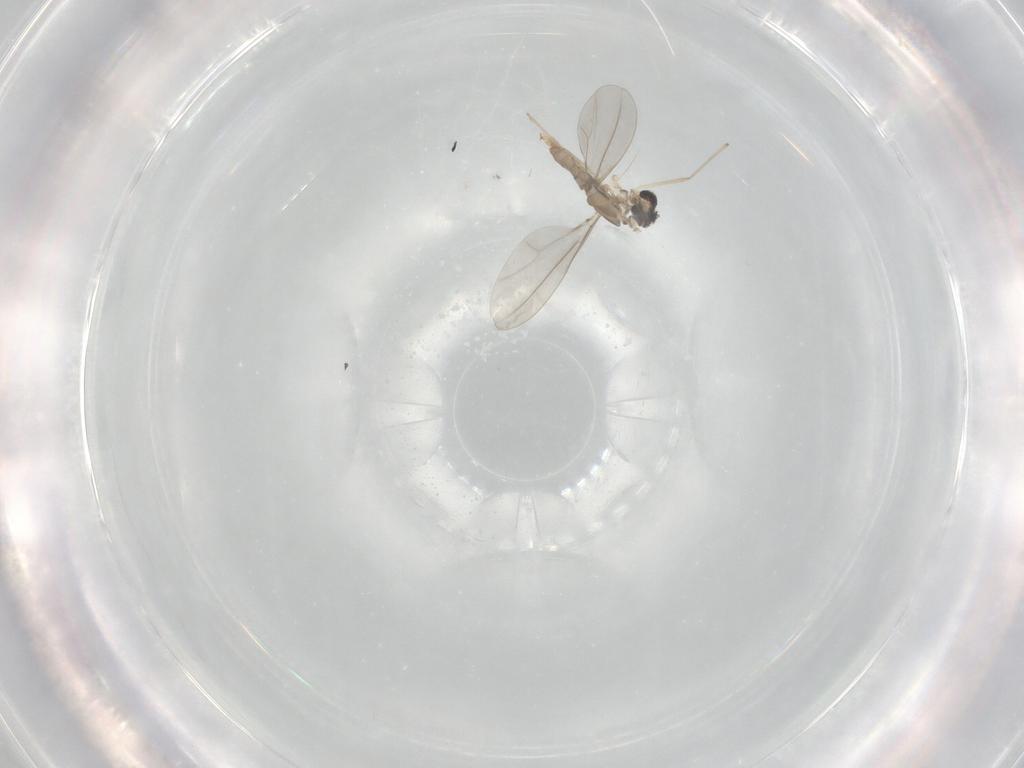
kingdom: Animalia
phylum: Arthropoda
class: Insecta
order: Diptera
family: Cecidomyiidae
